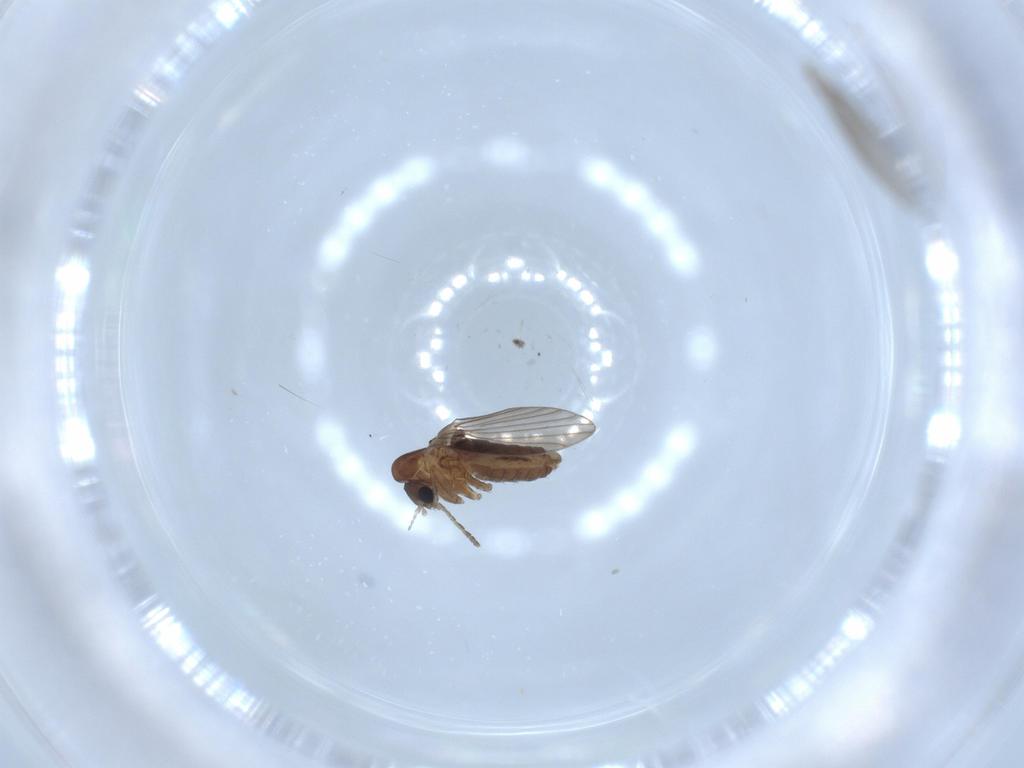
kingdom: Animalia
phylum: Arthropoda
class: Insecta
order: Diptera
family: Psychodidae
